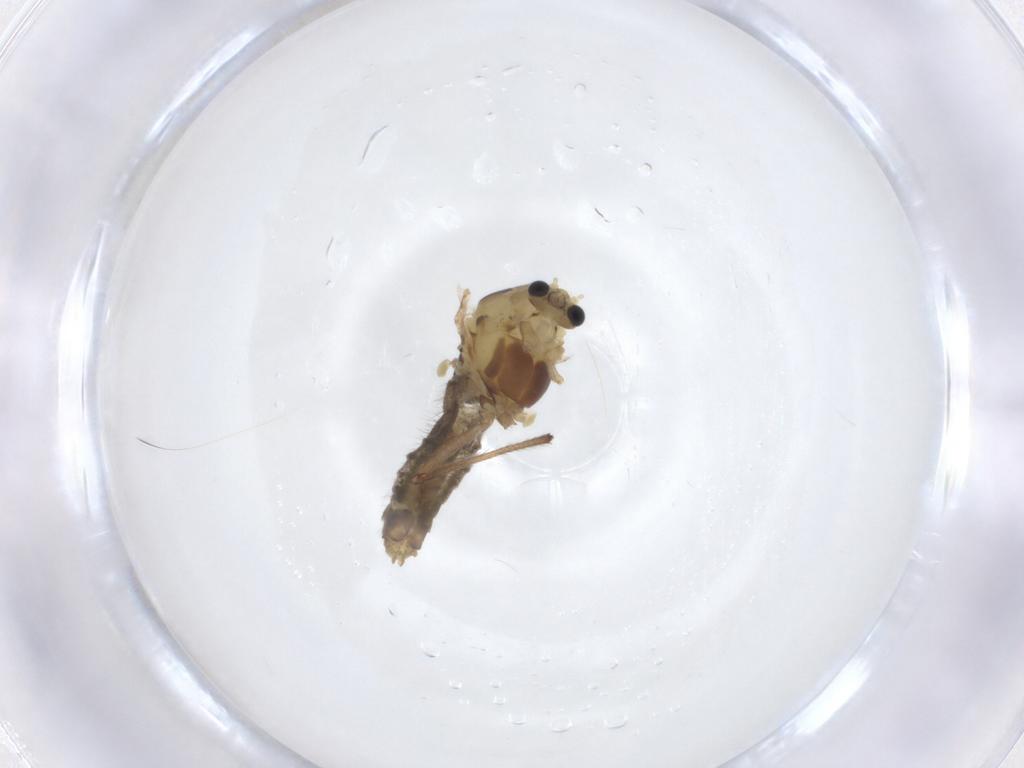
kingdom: Animalia
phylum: Arthropoda
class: Insecta
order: Diptera
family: Chironomidae
